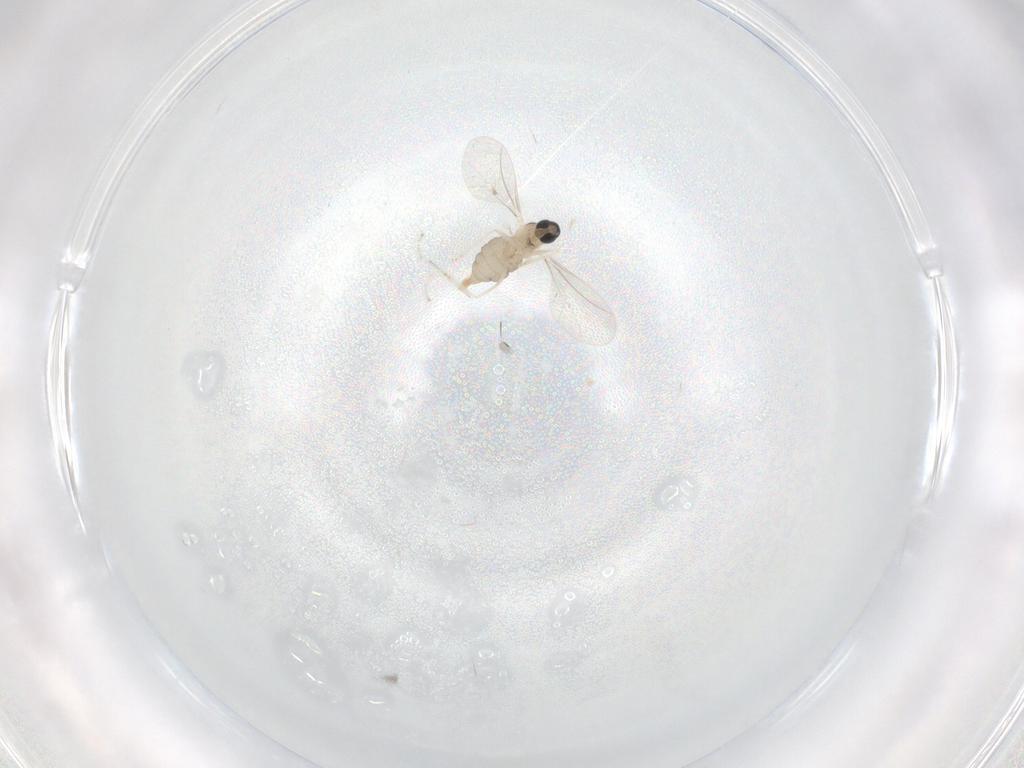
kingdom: Animalia
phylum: Arthropoda
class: Insecta
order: Diptera
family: Cecidomyiidae
